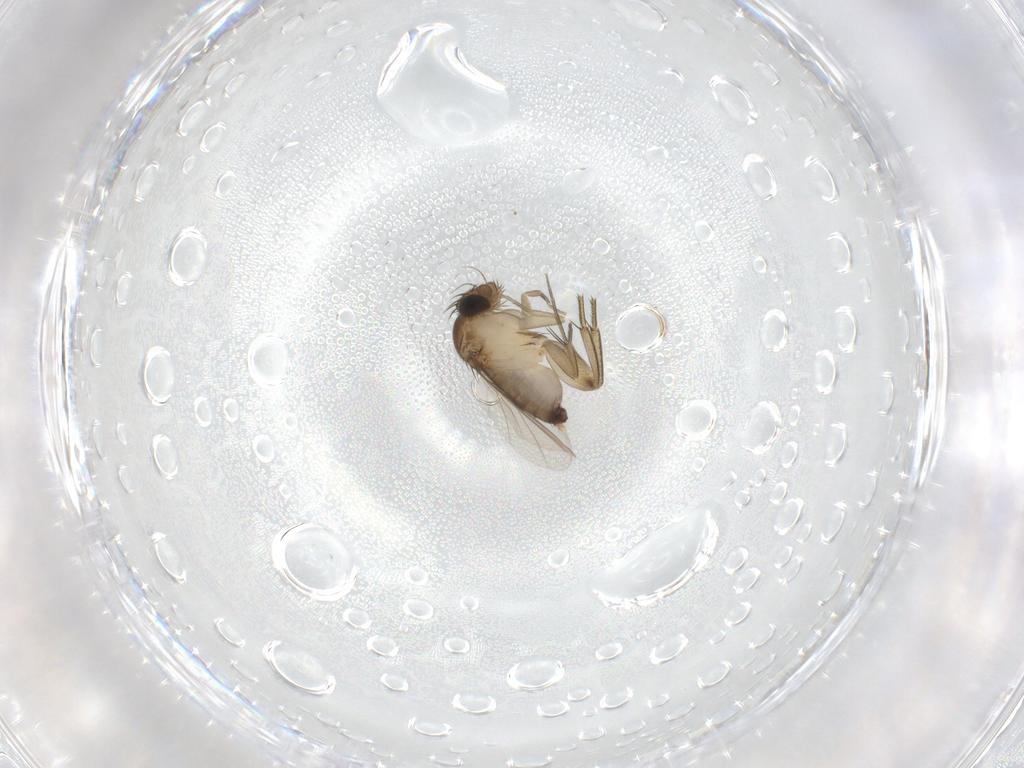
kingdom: Animalia
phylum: Arthropoda
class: Insecta
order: Diptera
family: Phoridae
